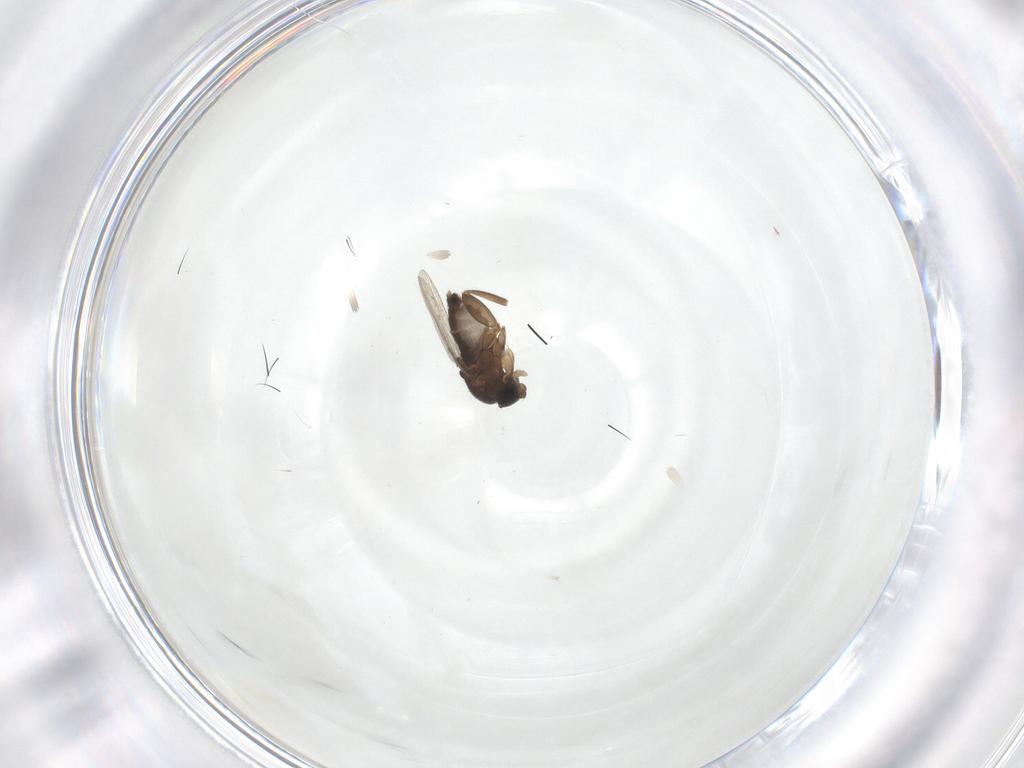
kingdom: Animalia
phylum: Arthropoda
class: Insecta
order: Diptera
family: Phoridae
